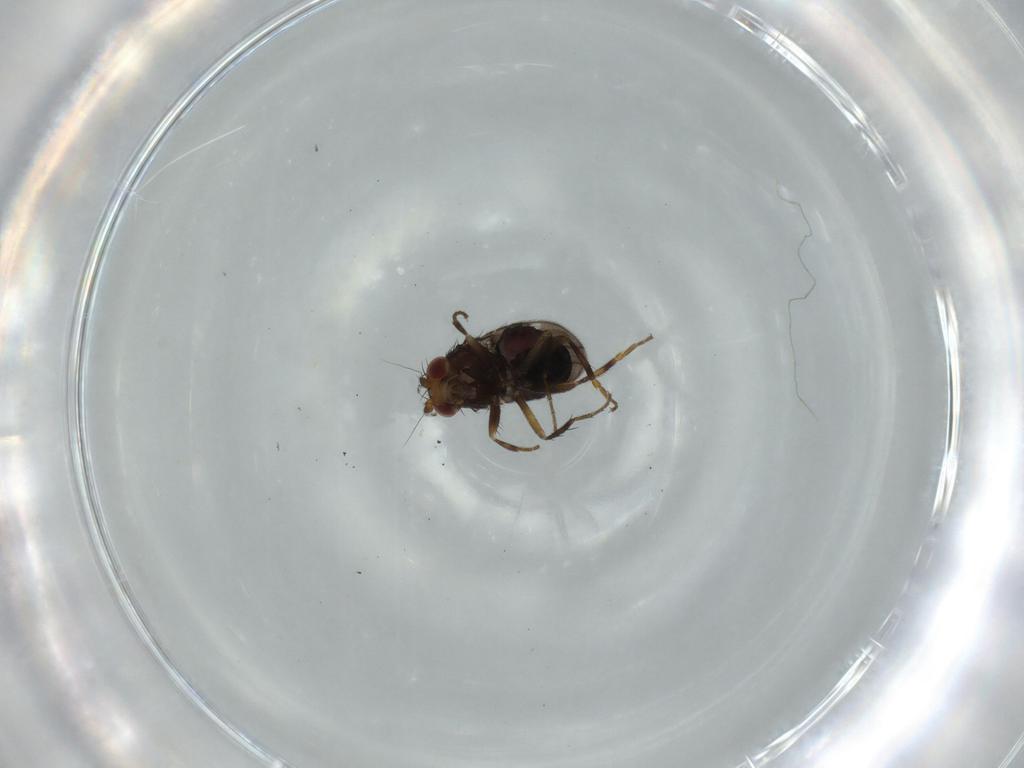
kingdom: Animalia
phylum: Arthropoda
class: Insecta
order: Diptera
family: Ceratopogonidae
